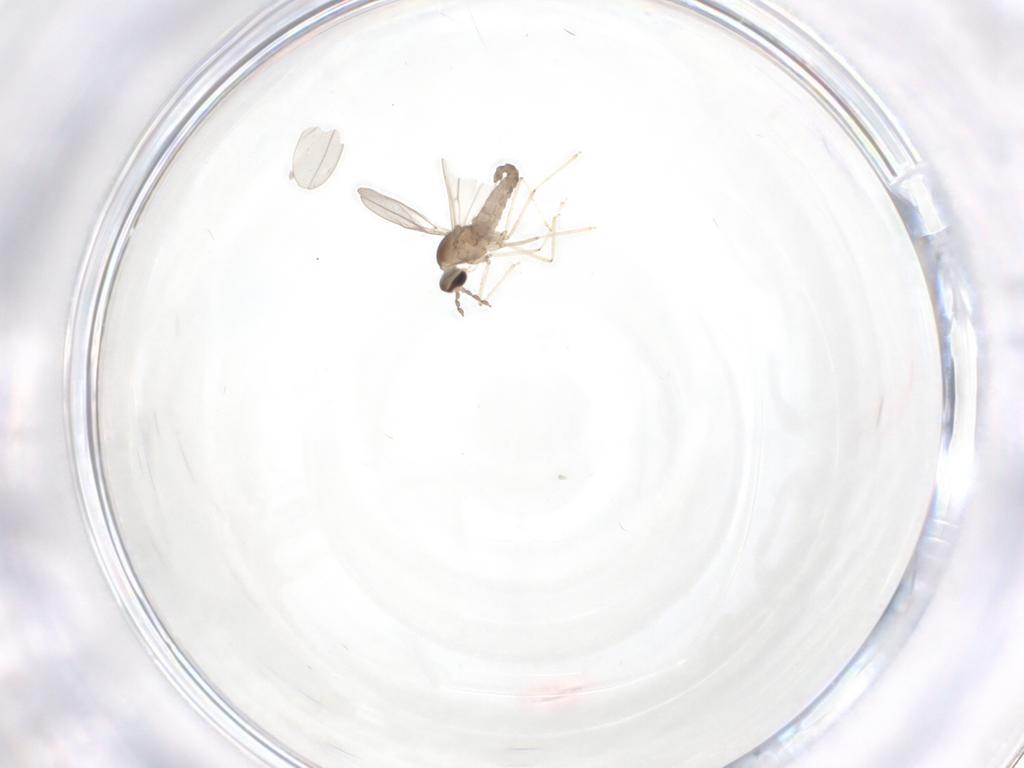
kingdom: Animalia
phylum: Arthropoda
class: Insecta
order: Diptera
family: Cecidomyiidae
